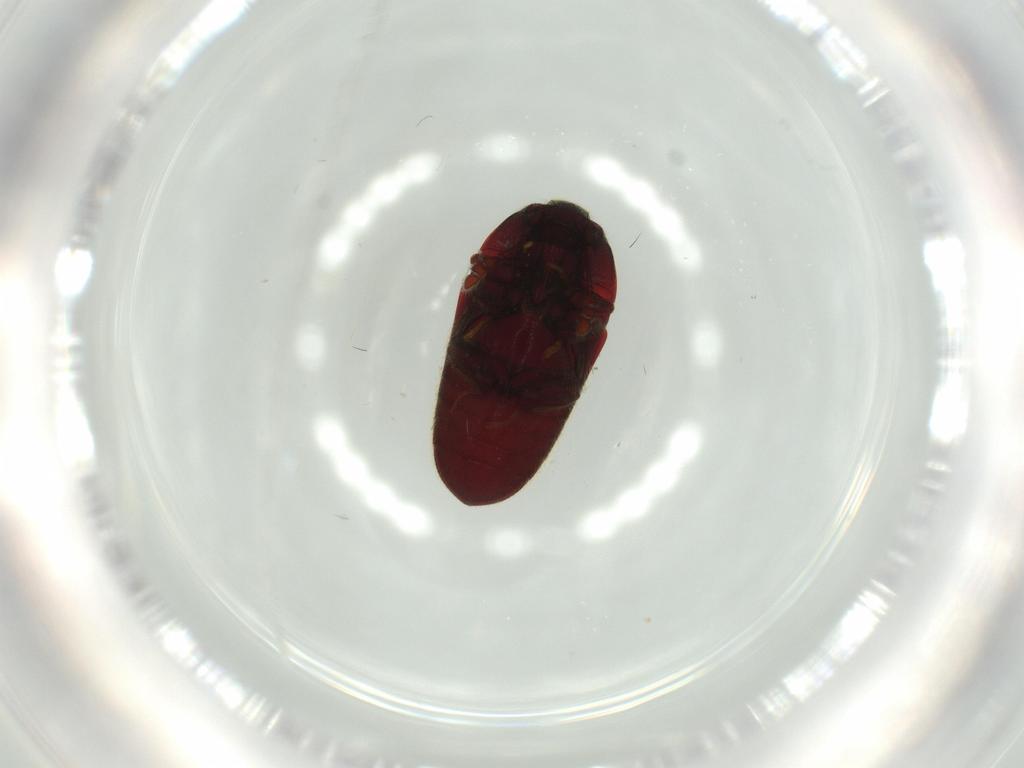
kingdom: Animalia
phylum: Arthropoda
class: Insecta
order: Coleoptera
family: Throscidae
